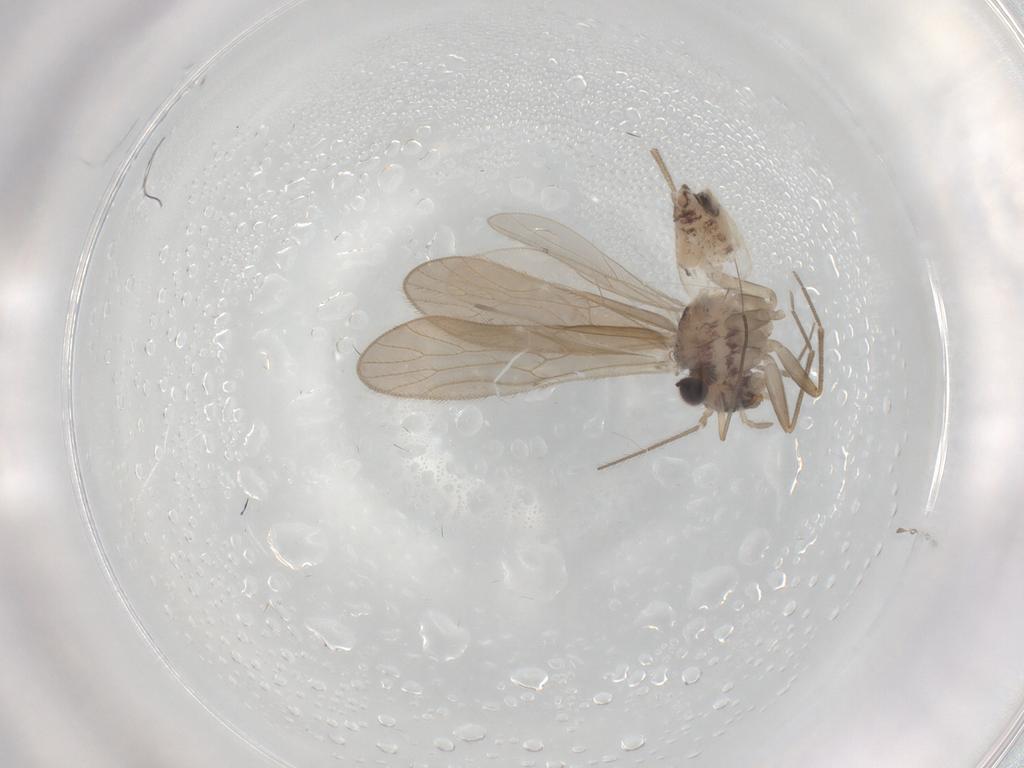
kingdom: Animalia
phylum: Arthropoda
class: Insecta
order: Psocodea
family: Mesopsocidae
